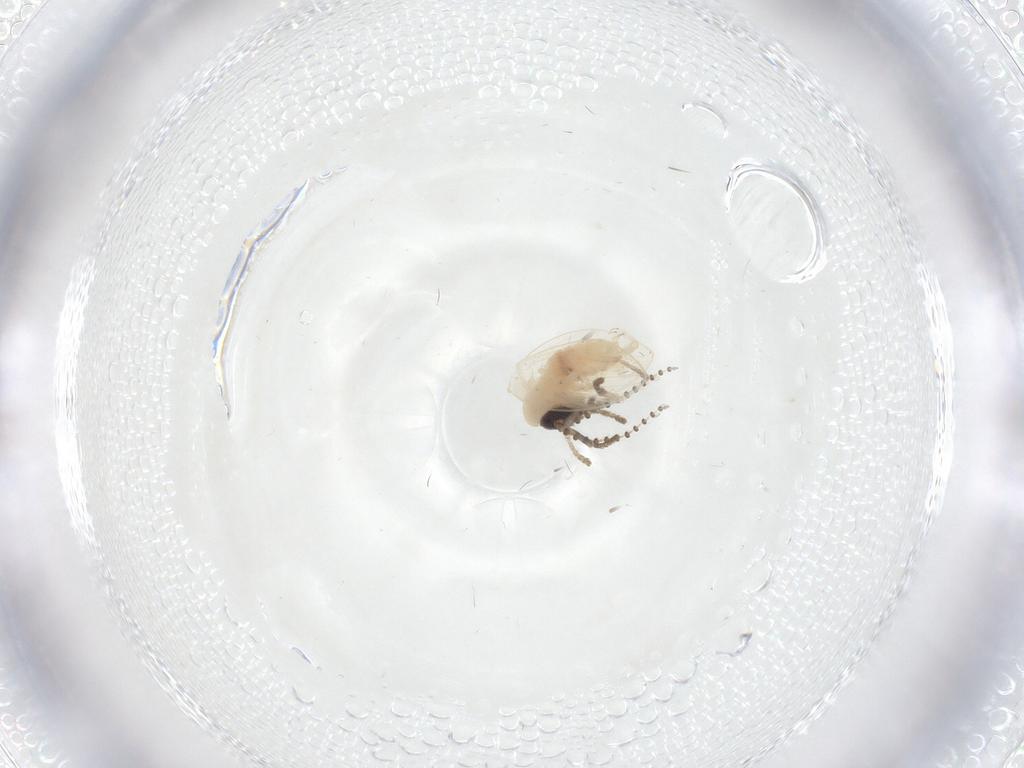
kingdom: Animalia
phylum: Arthropoda
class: Insecta
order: Diptera
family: Psychodidae
